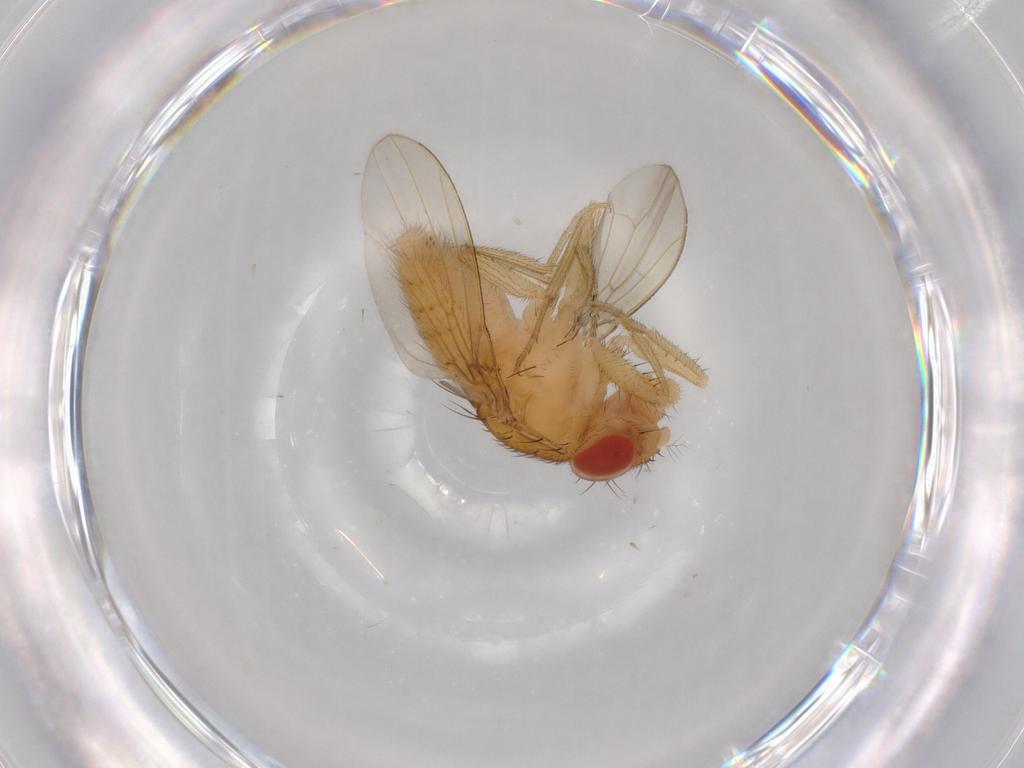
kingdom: Animalia
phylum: Arthropoda
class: Insecta
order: Diptera
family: Drosophilidae
